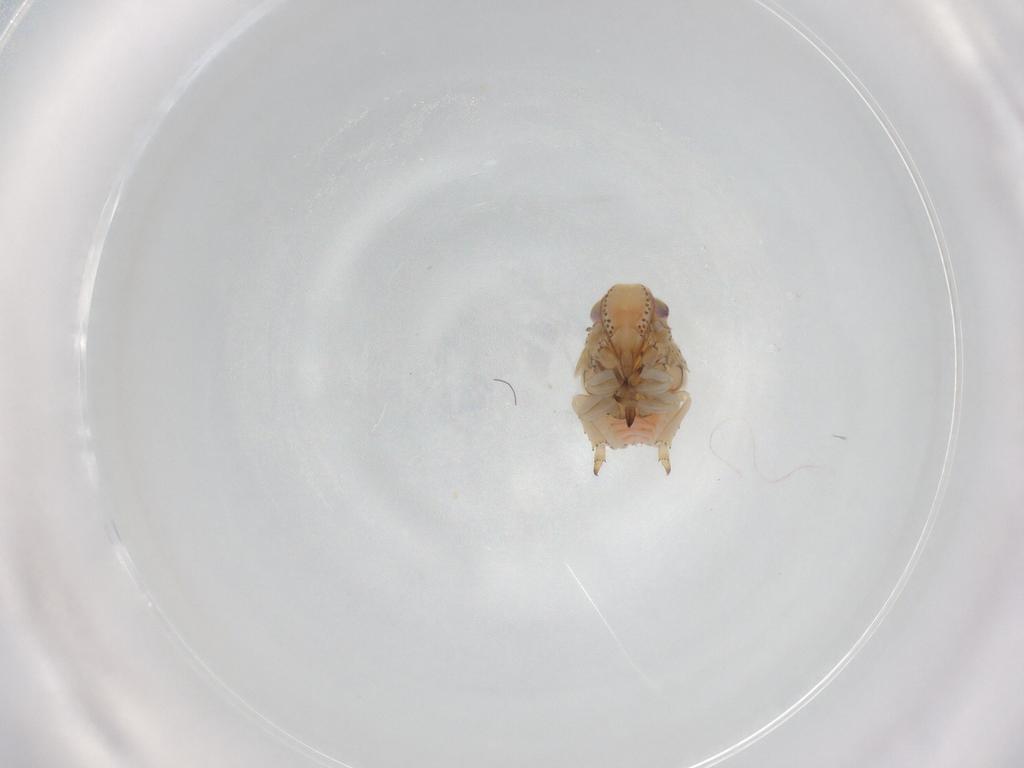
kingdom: Animalia
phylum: Arthropoda
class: Insecta
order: Hemiptera
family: Nogodinidae
